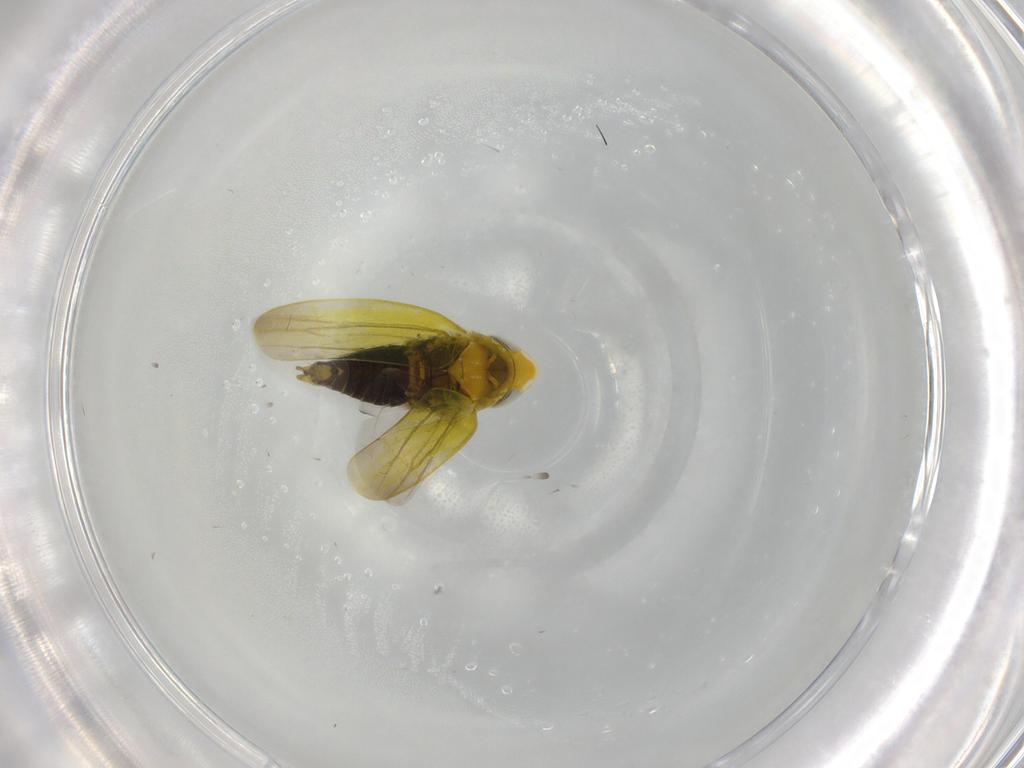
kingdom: Animalia
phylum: Arthropoda
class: Insecta
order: Hemiptera
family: Cicadellidae
